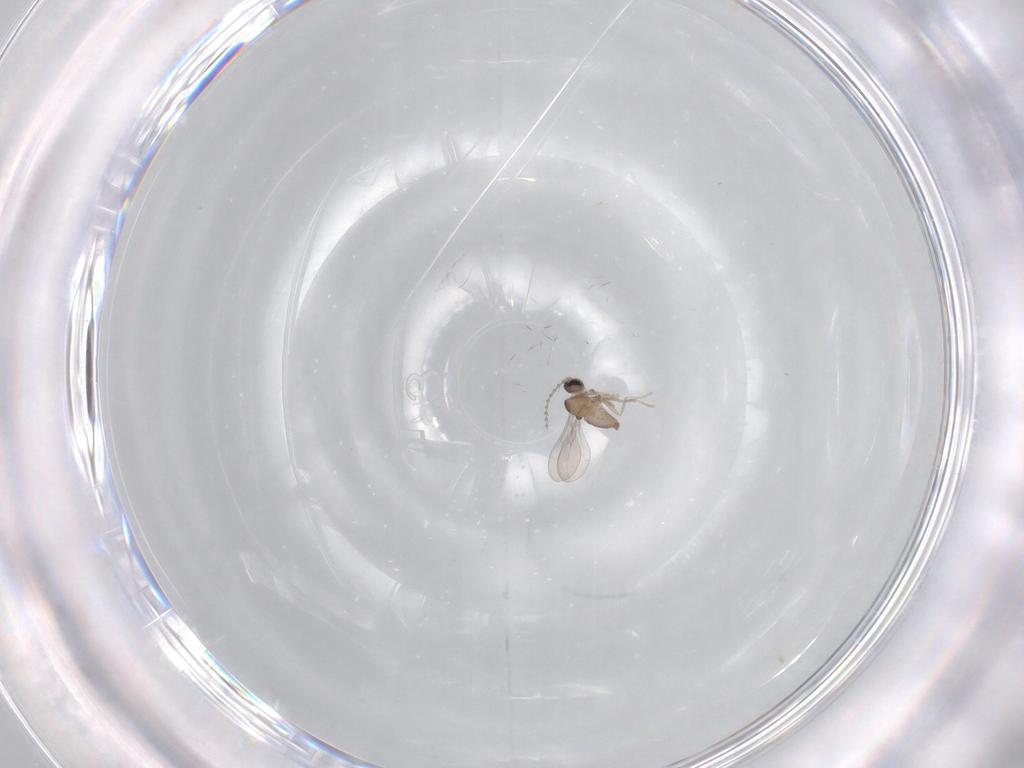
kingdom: Animalia
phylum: Arthropoda
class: Insecta
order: Diptera
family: Cecidomyiidae
